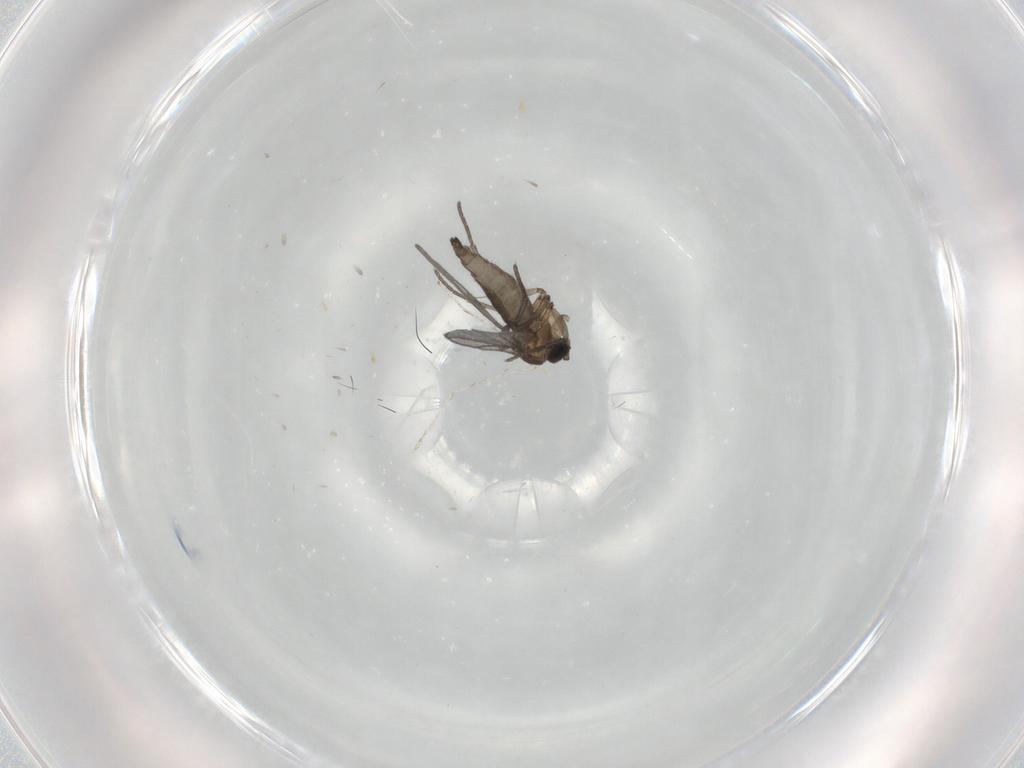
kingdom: Animalia
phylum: Arthropoda
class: Insecta
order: Diptera
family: Sciaridae
